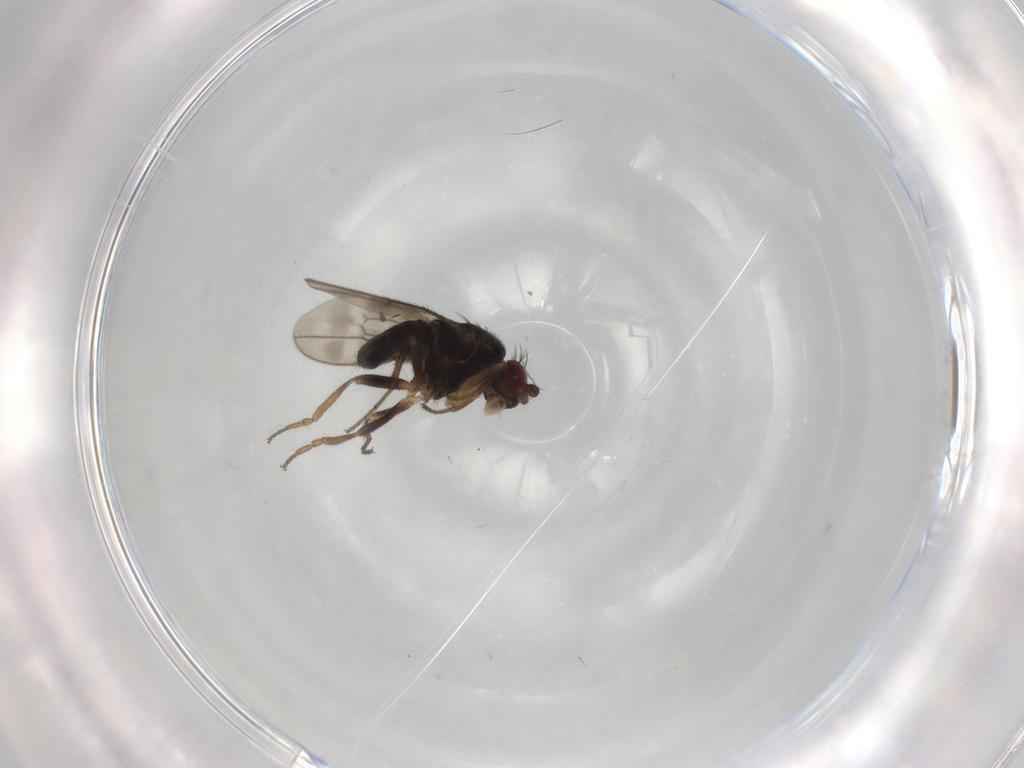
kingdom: Animalia
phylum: Arthropoda
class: Insecta
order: Diptera
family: Sphaeroceridae
